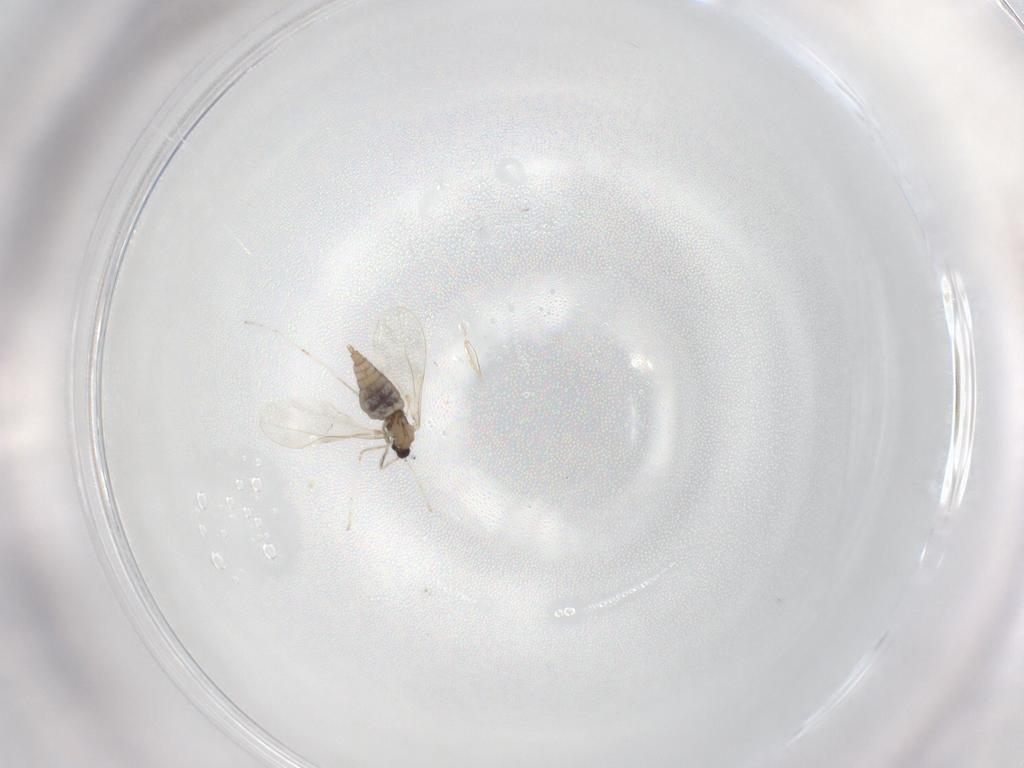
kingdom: Animalia
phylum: Arthropoda
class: Insecta
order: Diptera
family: Cecidomyiidae
